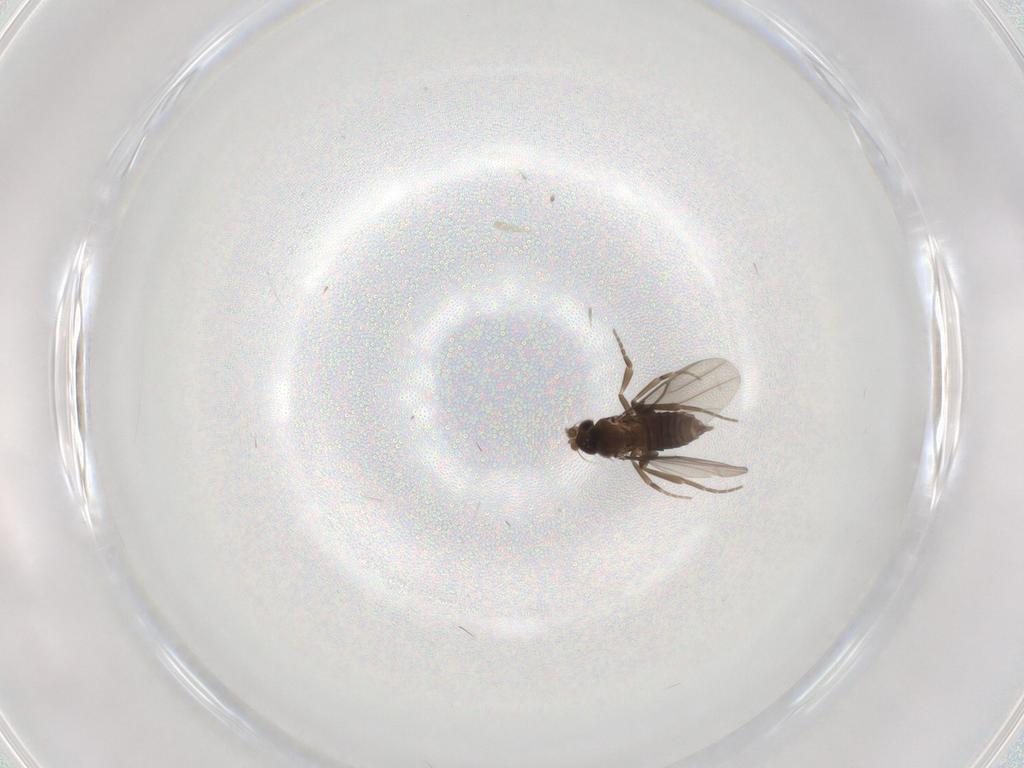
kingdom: Animalia
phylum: Arthropoda
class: Insecta
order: Diptera
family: Phoridae
